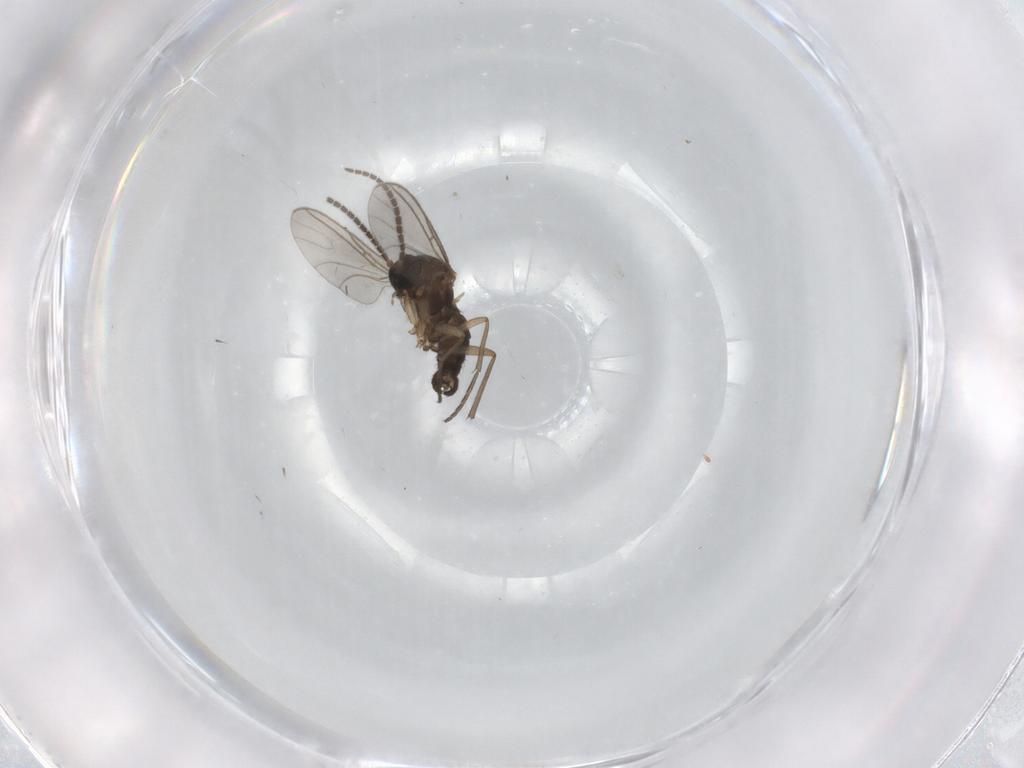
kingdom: Animalia
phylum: Arthropoda
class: Insecta
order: Diptera
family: Sciaridae
